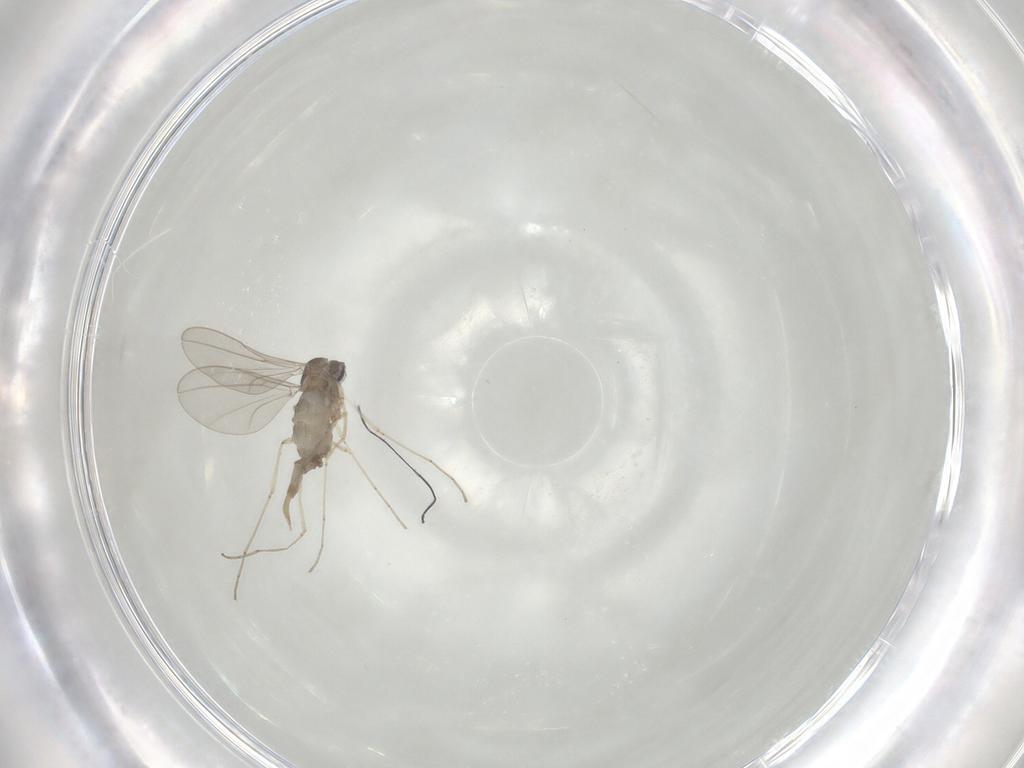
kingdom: Animalia
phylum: Arthropoda
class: Insecta
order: Diptera
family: Cecidomyiidae
